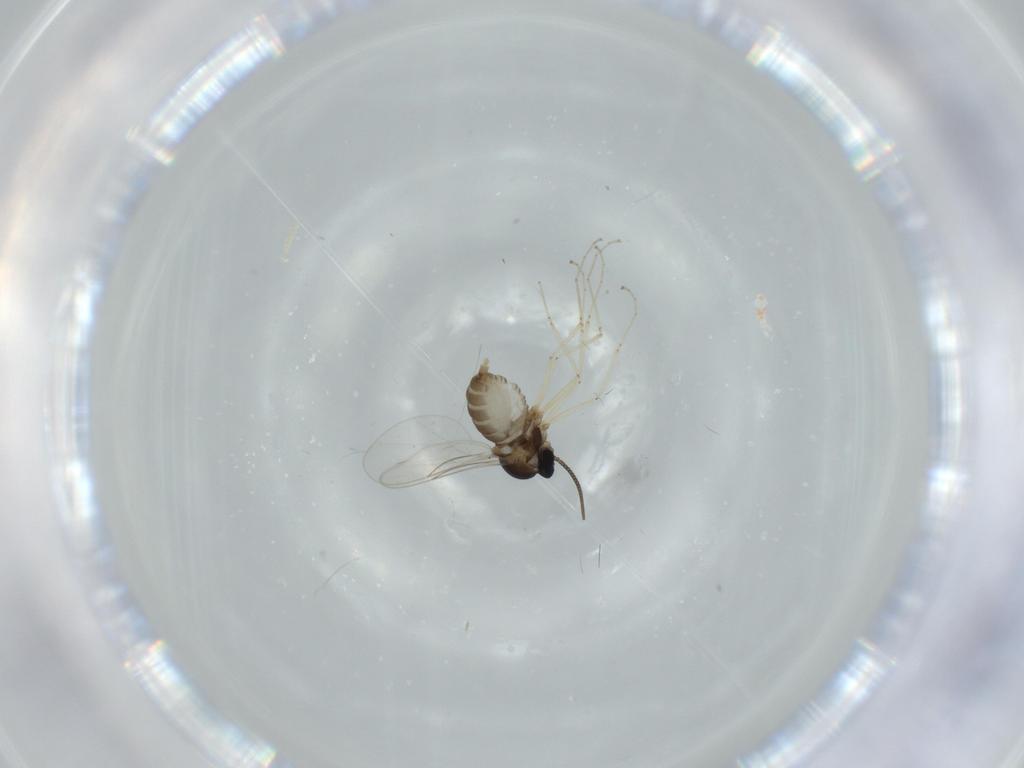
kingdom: Animalia
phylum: Arthropoda
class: Insecta
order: Diptera
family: Cecidomyiidae
